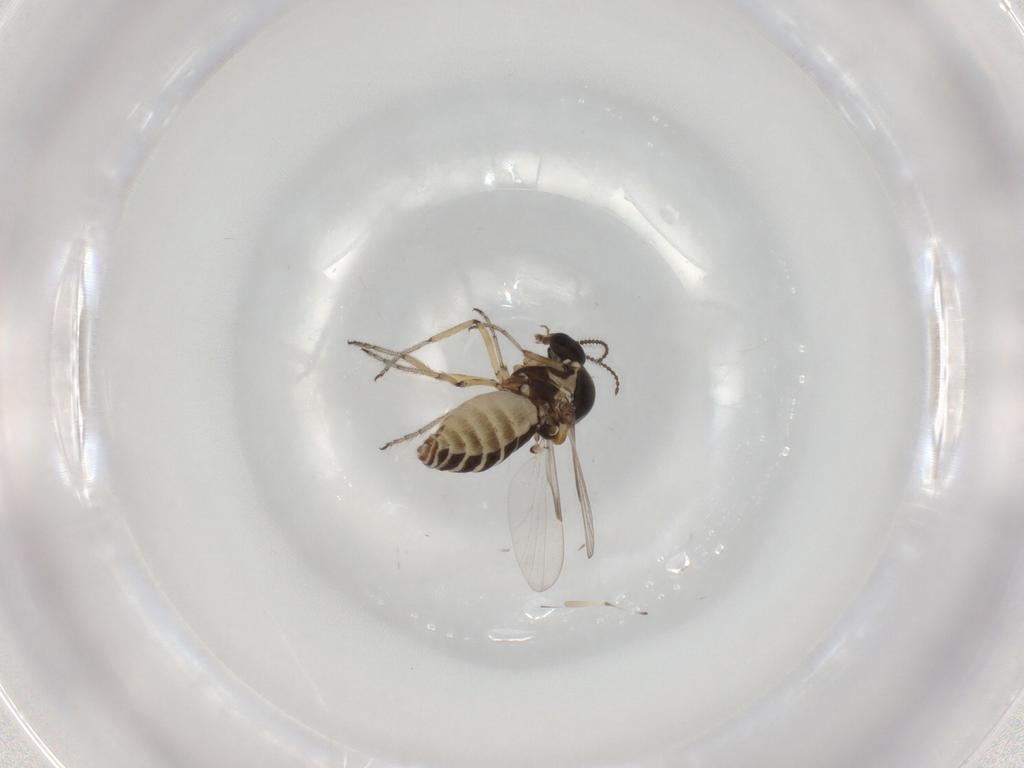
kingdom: Animalia
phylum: Arthropoda
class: Insecta
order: Diptera
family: Ceratopogonidae
